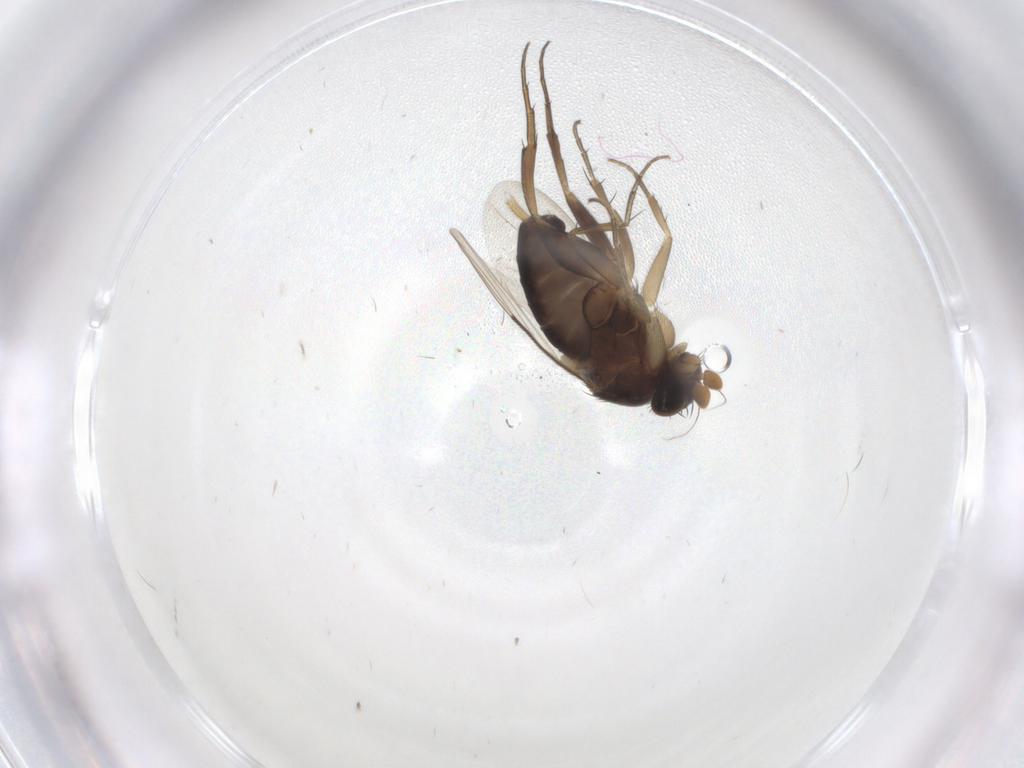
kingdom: Animalia
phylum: Arthropoda
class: Insecta
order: Diptera
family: Phoridae
